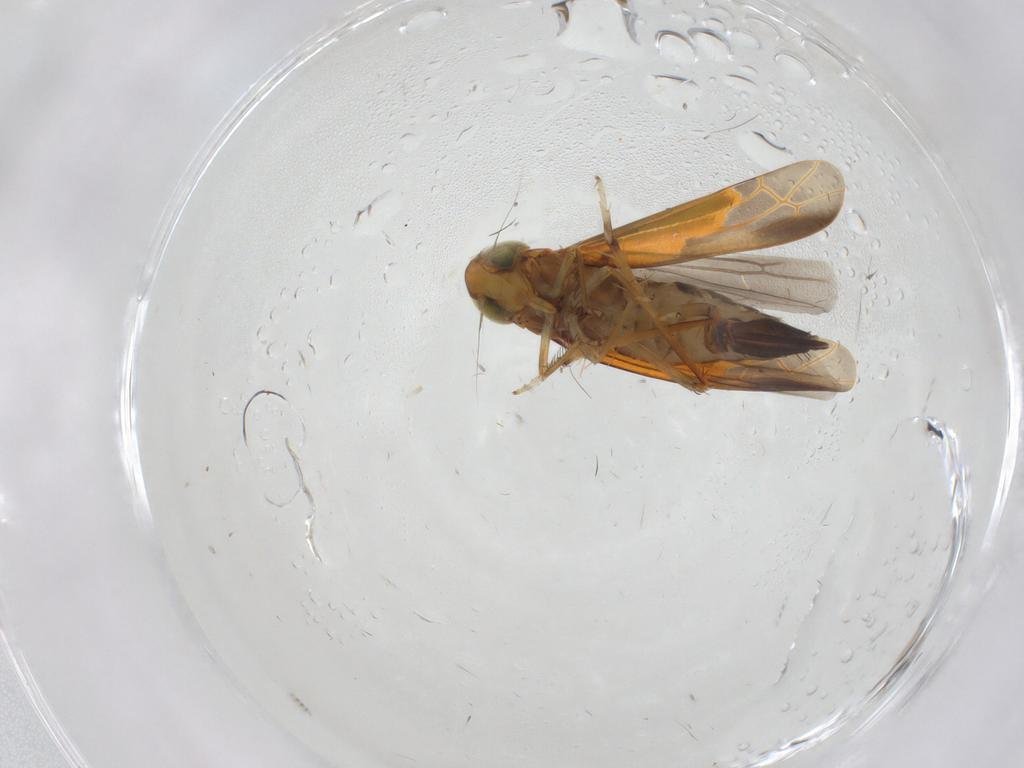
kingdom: Animalia
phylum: Arthropoda
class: Insecta
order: Hemiptera
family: Cicadellidae
